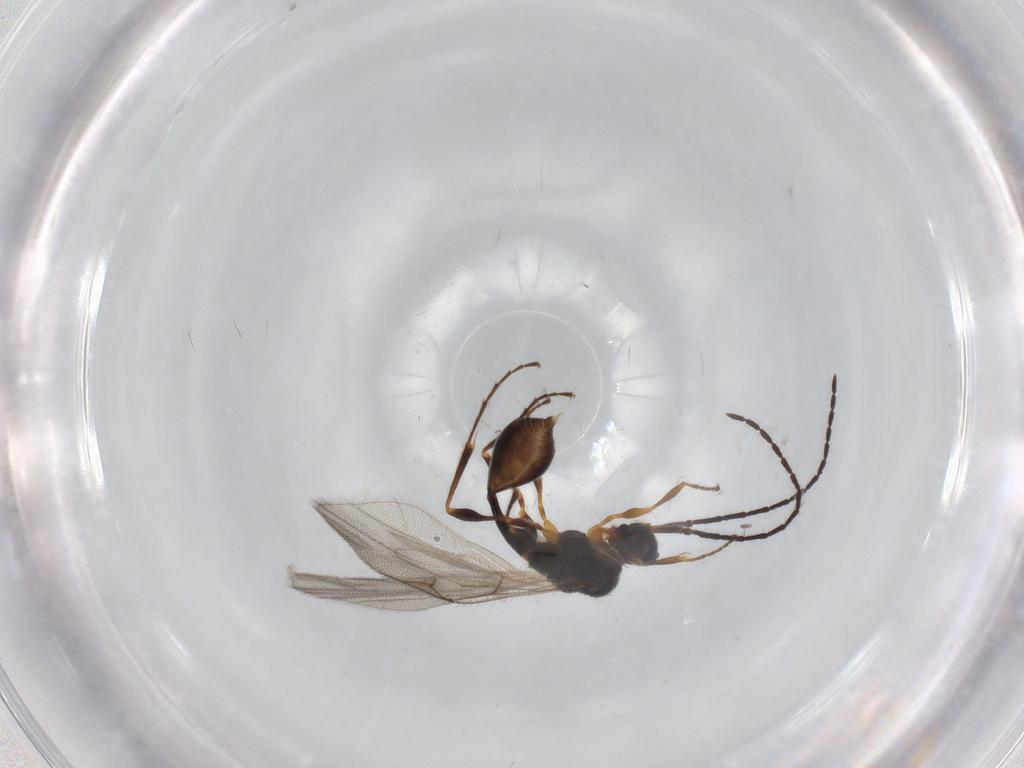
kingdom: Animalia
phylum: Arthropoda
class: Insecta
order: Hymenoptera
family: Diapriidae
